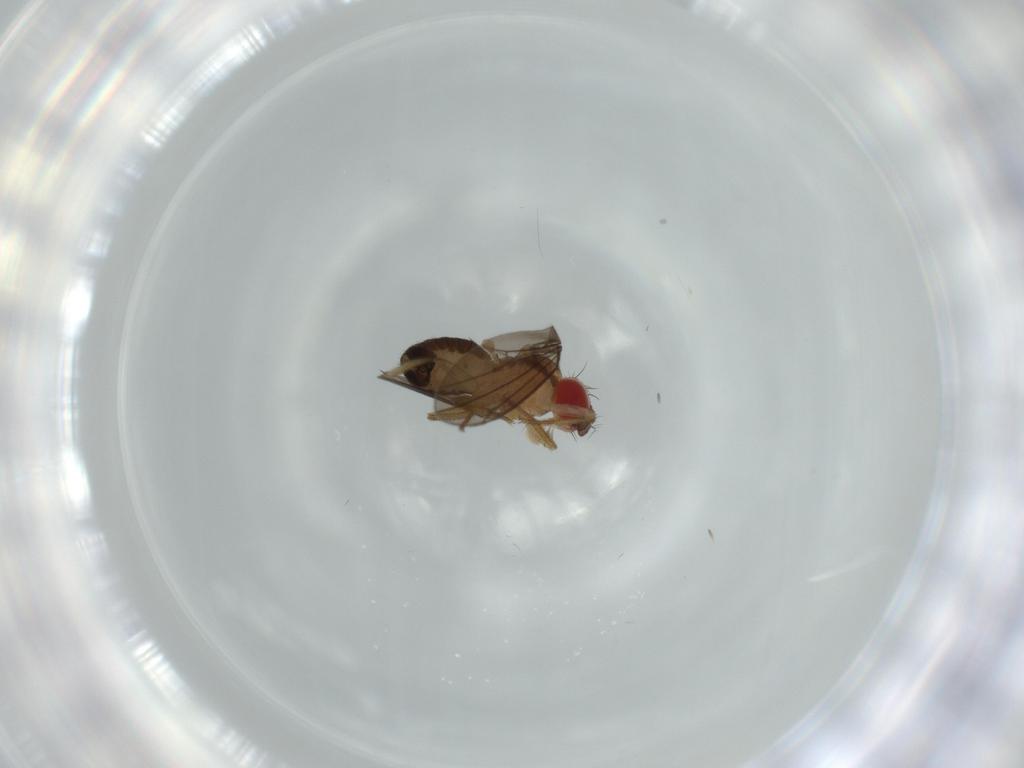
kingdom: Animalia
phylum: Arthropoda
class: Insecta
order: Diptera
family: Drosophilidae
